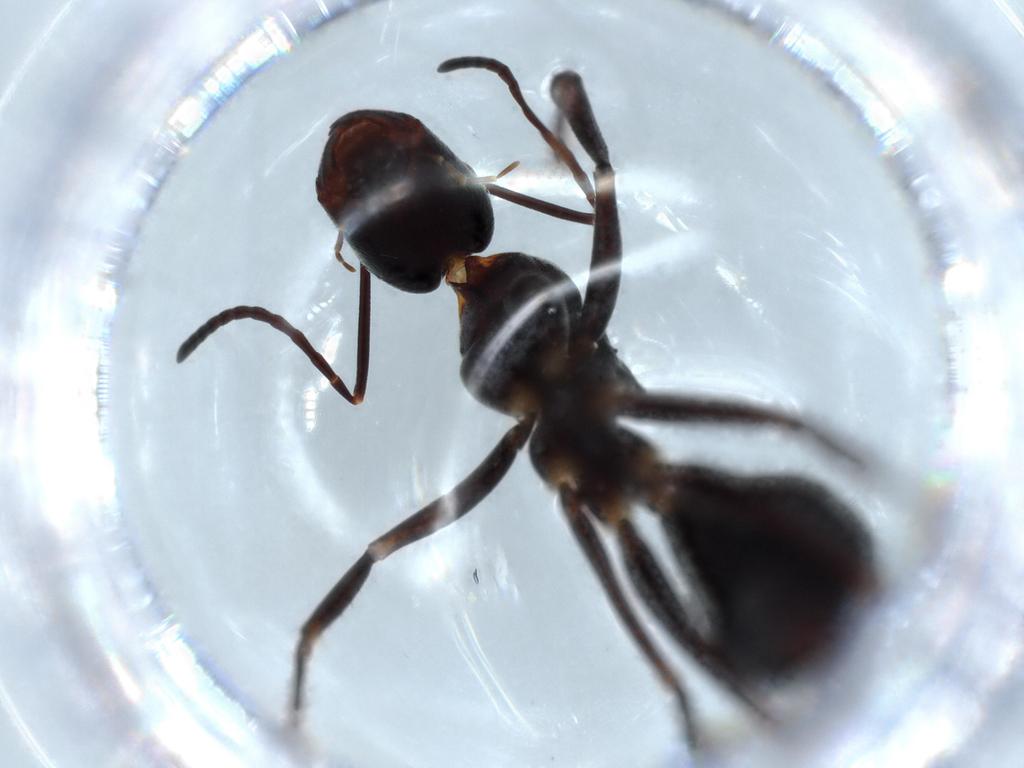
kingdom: Animalia
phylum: Arthropoda
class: Insecta
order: Hymenoptera
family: Formicidae
